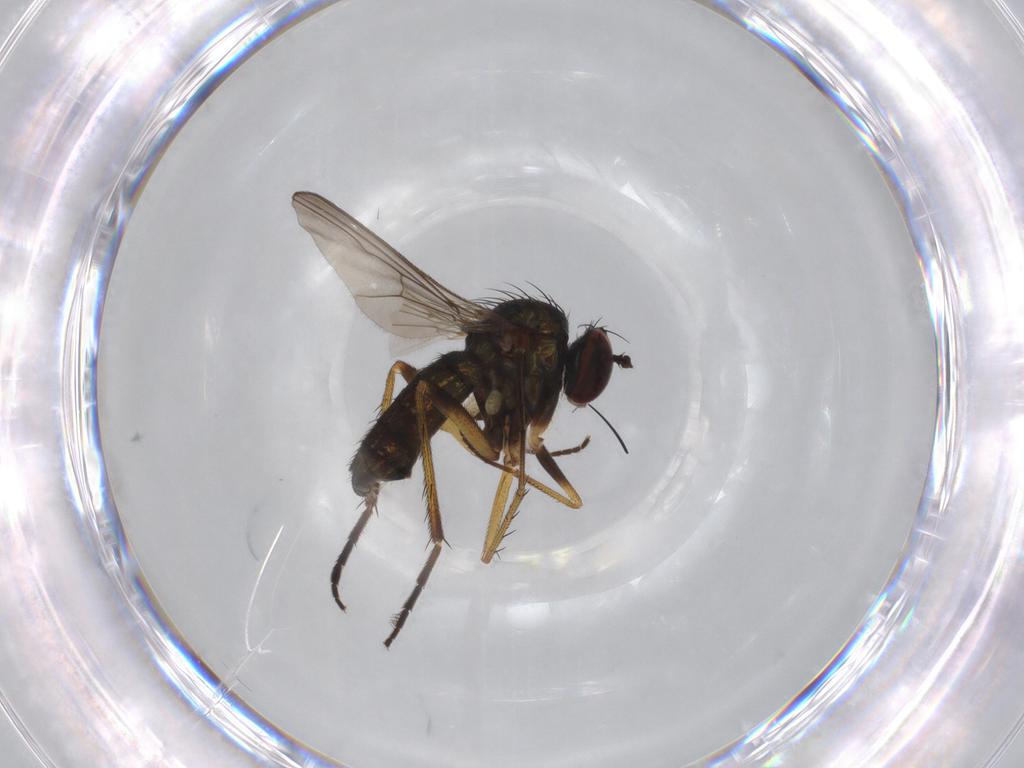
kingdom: Animalia
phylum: Arthropoda
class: Insecta
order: Diptera
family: Dolichopodidae
